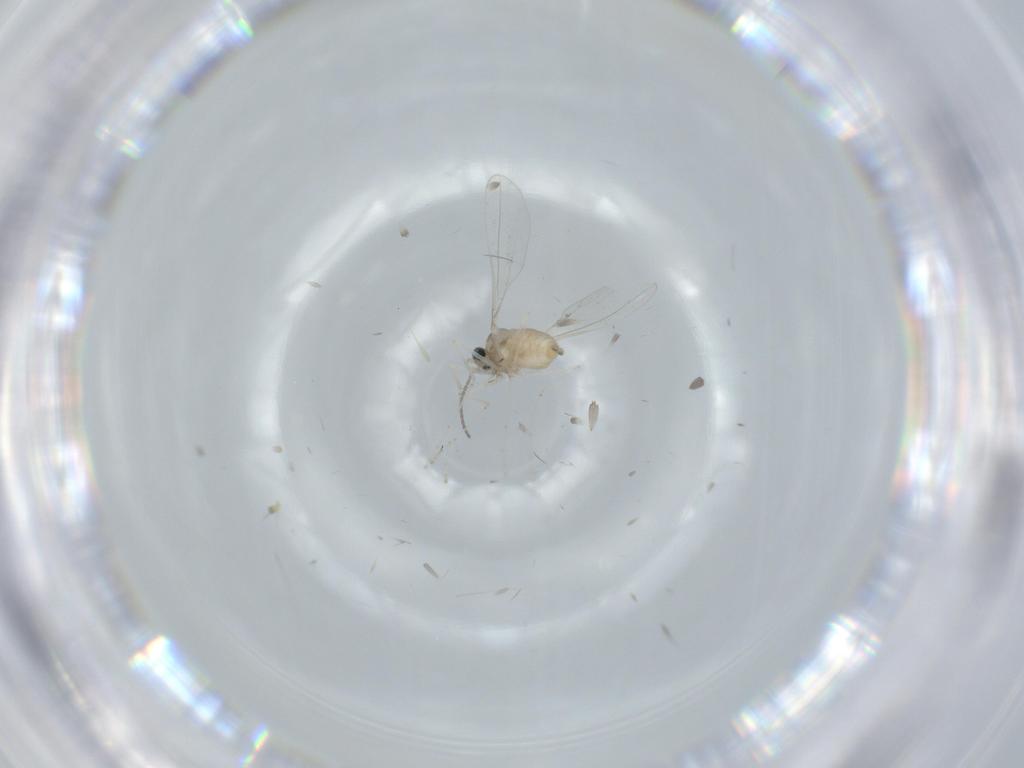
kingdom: Animalia
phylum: Arthropoda
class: Insecta
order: Diptera
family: Cecidomyiidae
